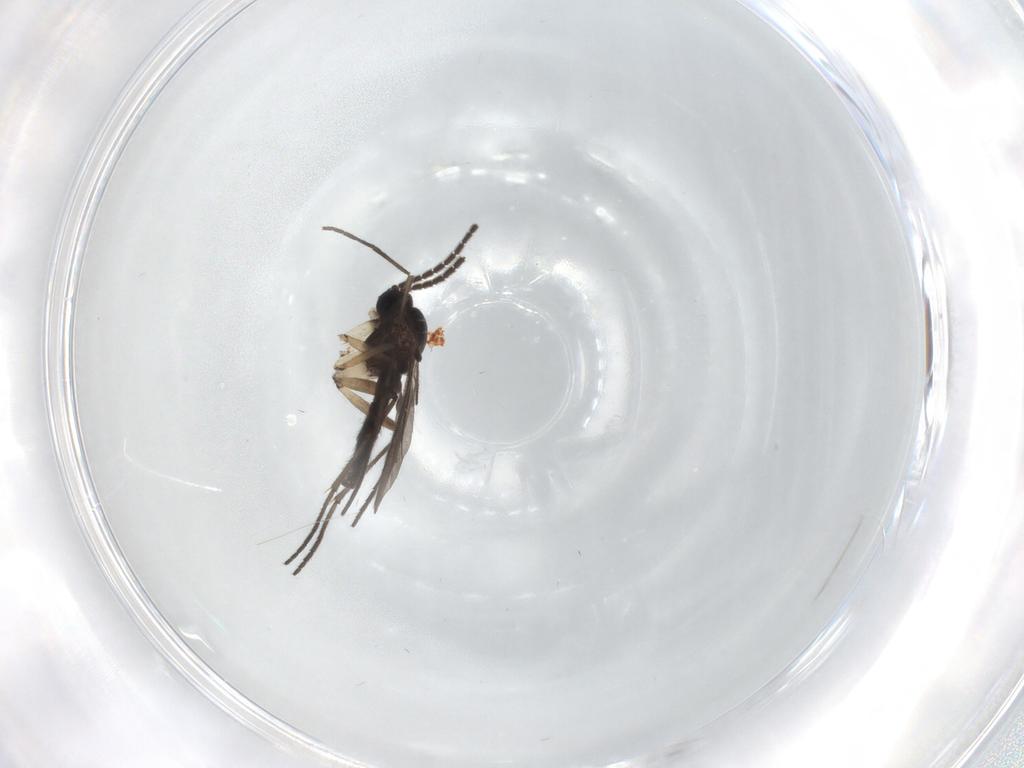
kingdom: Animalia
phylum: Arthropoda
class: Insecta
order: Diptera
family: Sciaridae
